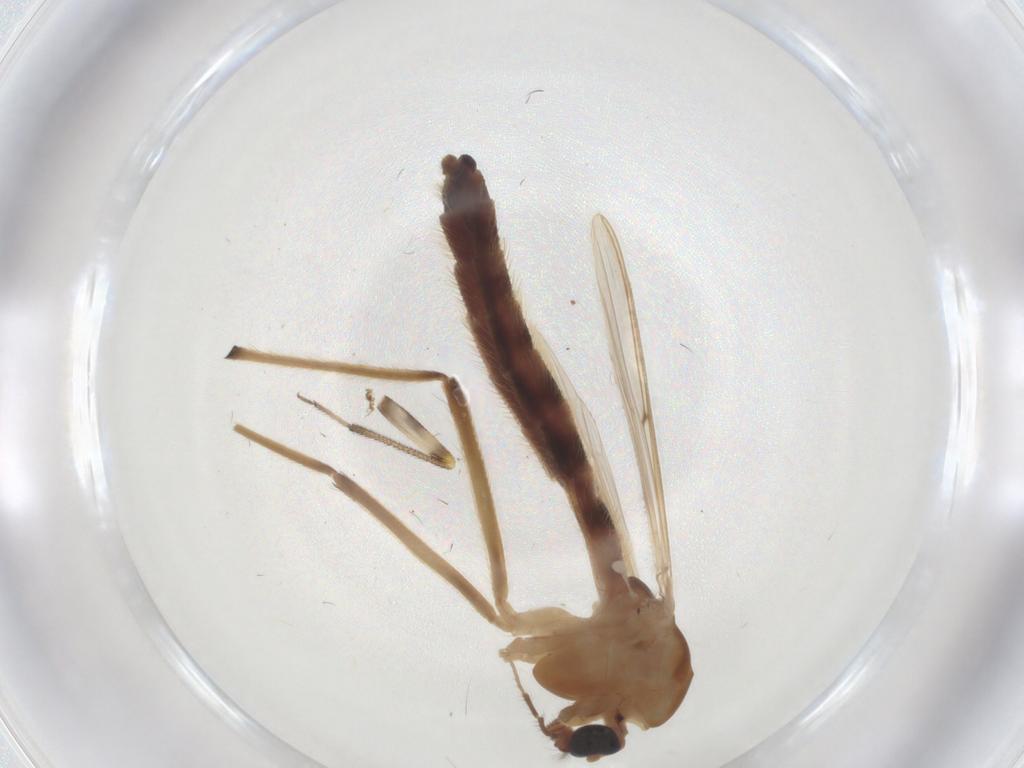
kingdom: Animalia
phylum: Arthropoda
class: Insecta
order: Diptera
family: Chironomidae
